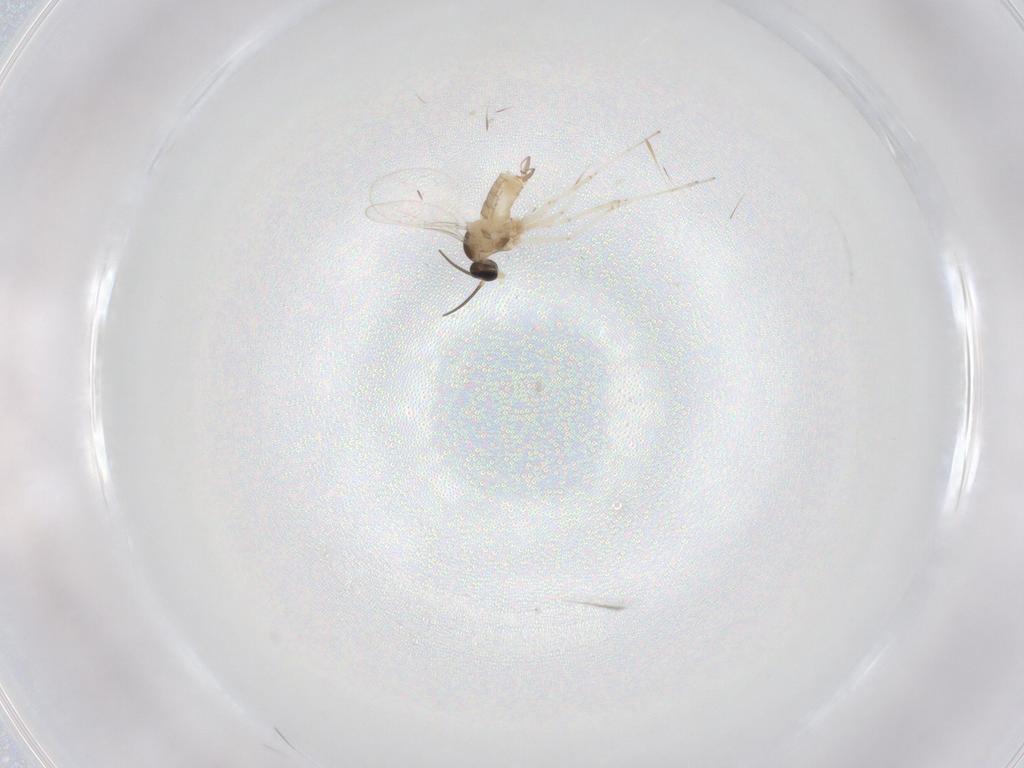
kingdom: Animalia
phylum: Arthropoda
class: Insecta
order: Diptera
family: Cecidomyiidae
